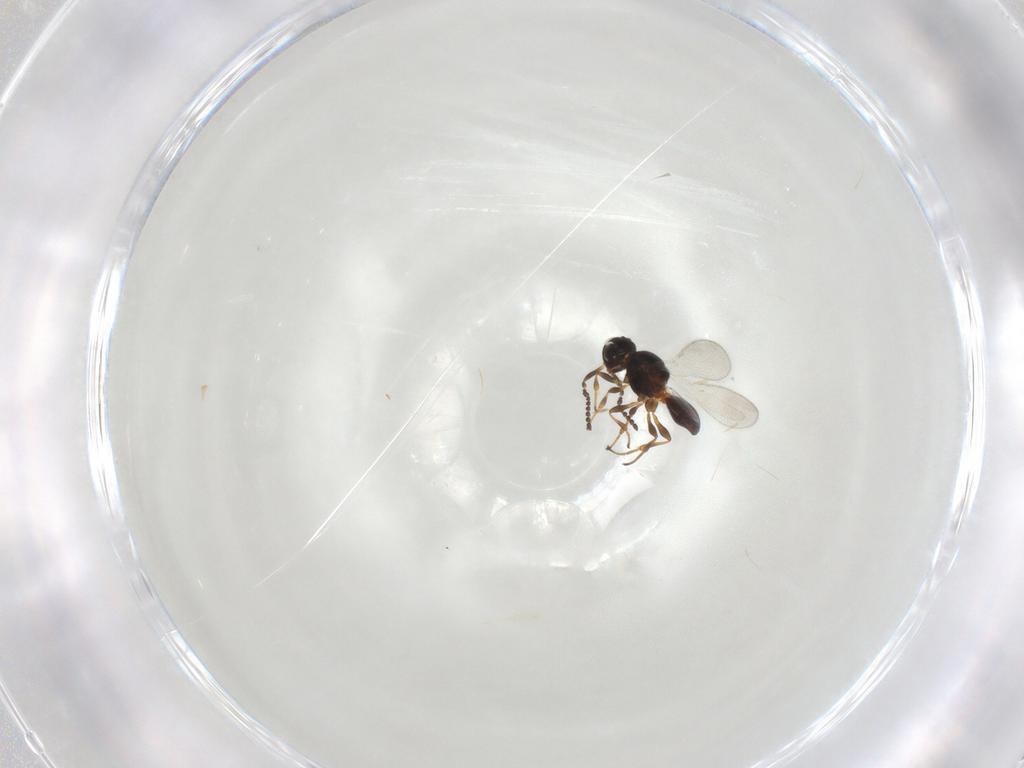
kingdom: Animalia
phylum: Arthropoda
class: Insecta
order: Hymenoptera
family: Platygastridae
